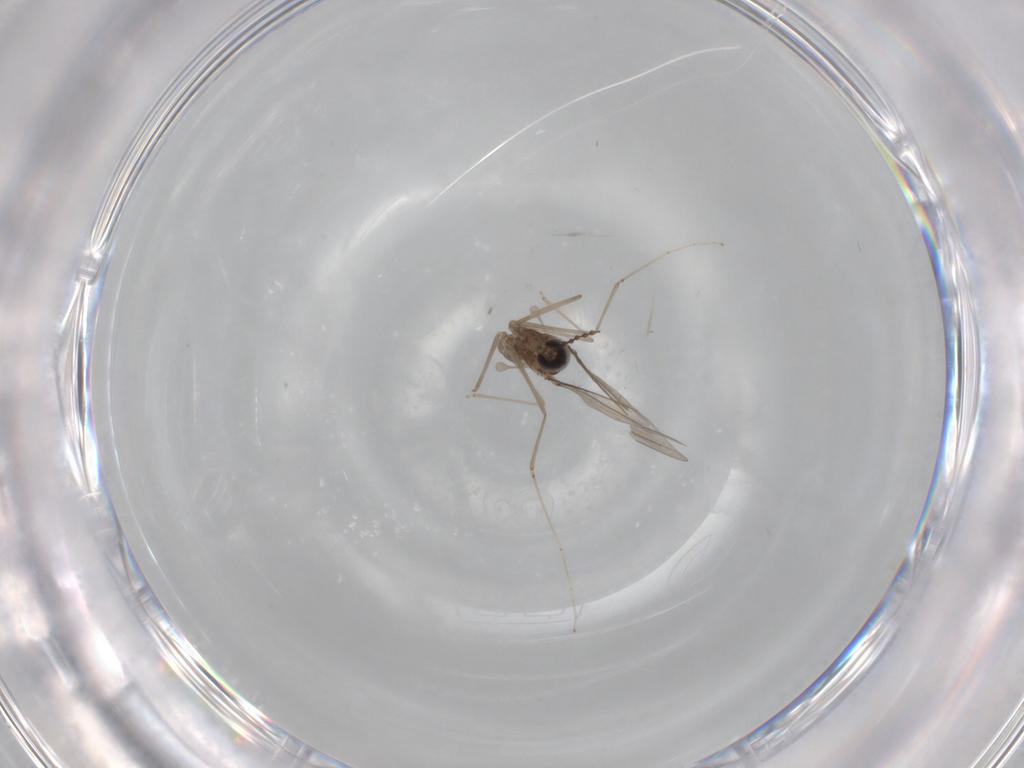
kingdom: Animalia
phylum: Arthropoda
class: Insecta
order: Diptera
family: Cecidomyiidae
